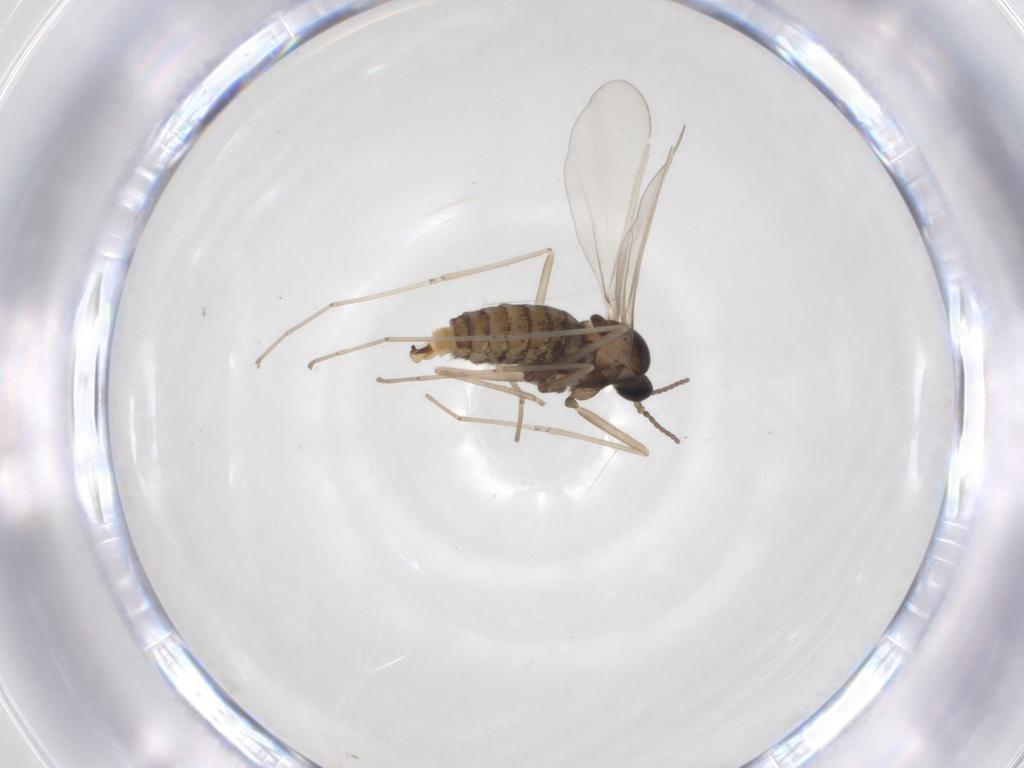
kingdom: Animalia
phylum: Arthropoda
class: Insecta
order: Diptera
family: Cecidomyiidae
